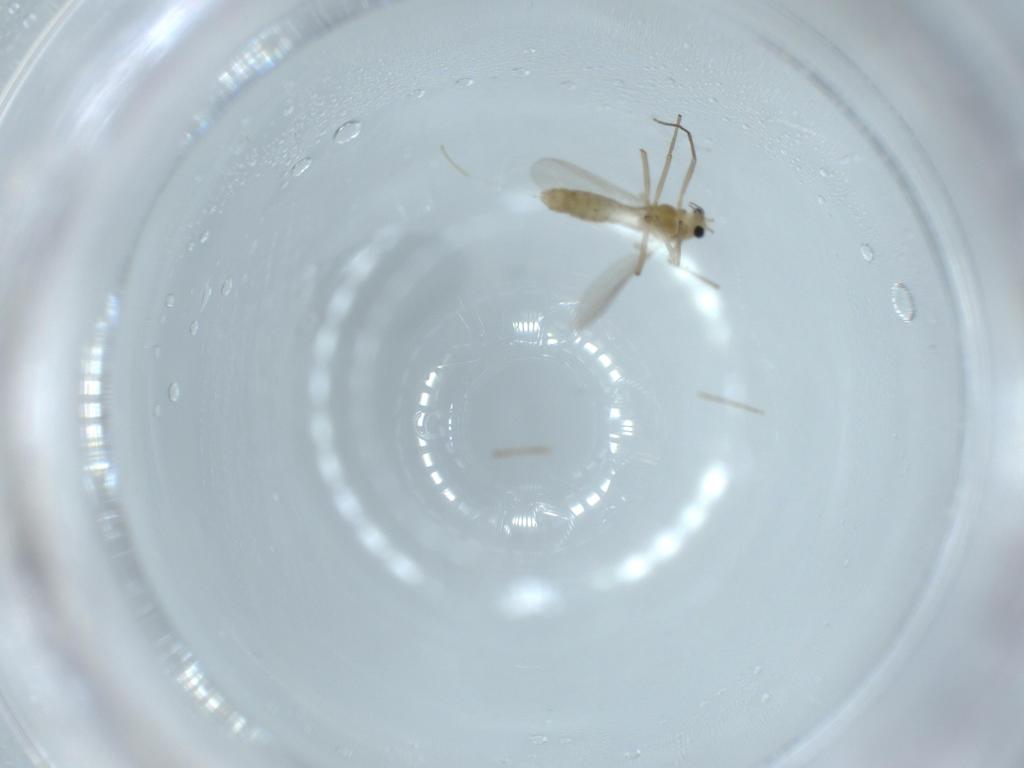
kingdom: Animalia
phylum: Arthropoda
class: Insecta
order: Diptera
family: Chironomidae
